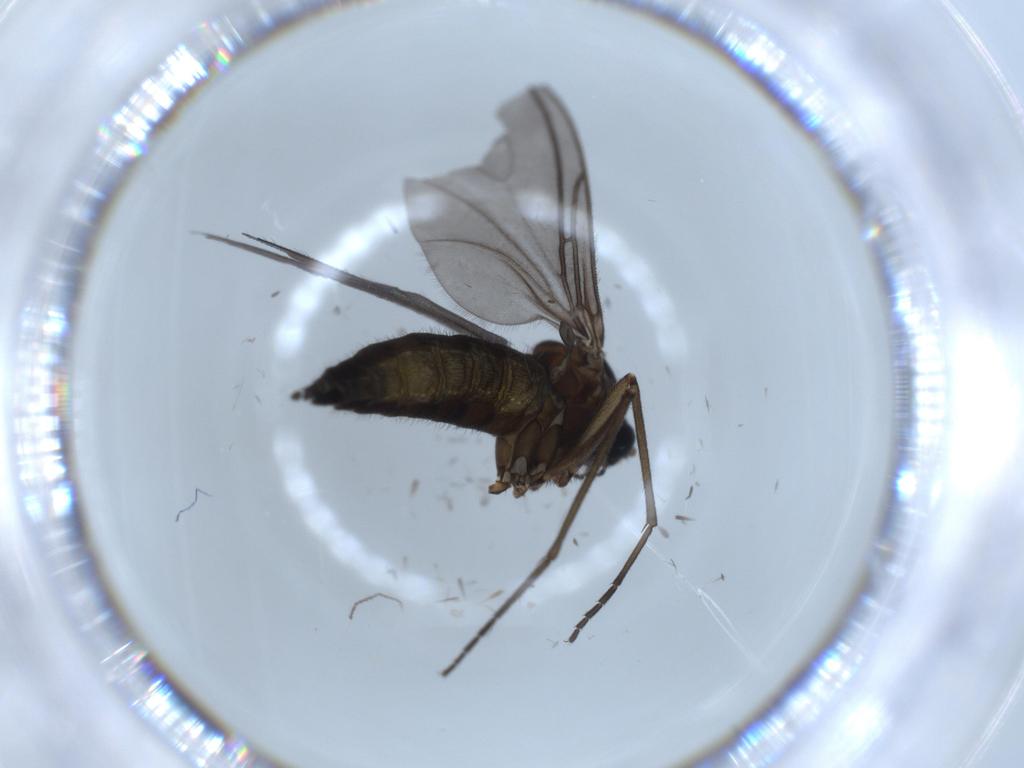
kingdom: Animalia
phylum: Arthropoda
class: Insecta
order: Diptera
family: Sciaridae
